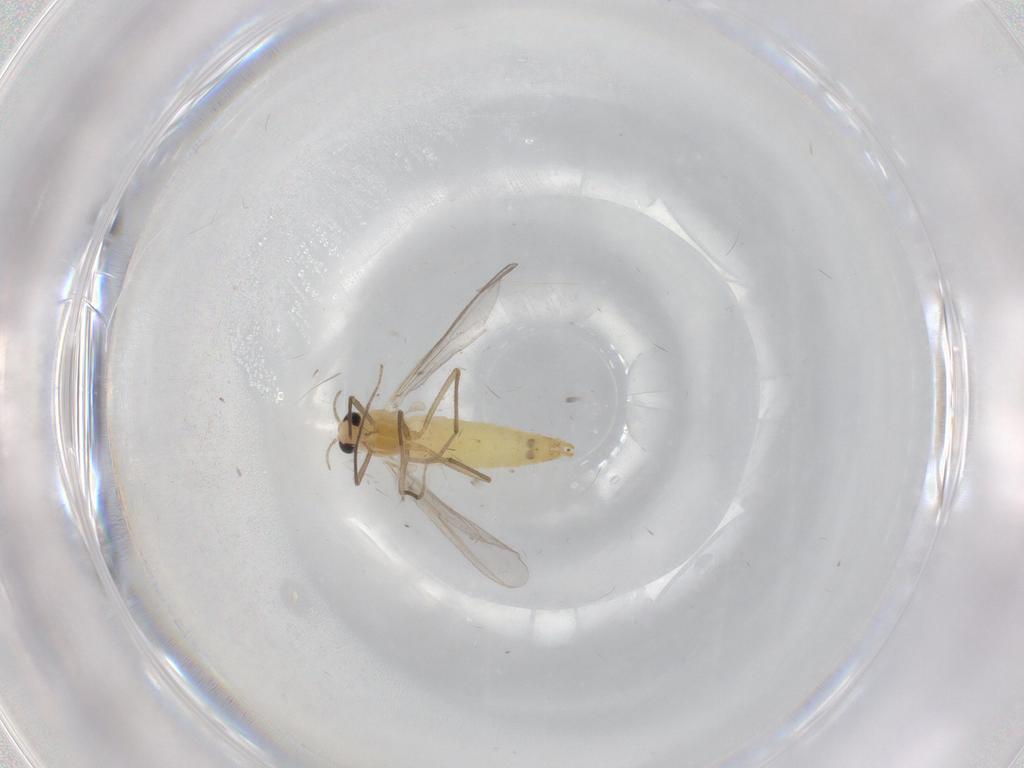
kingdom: Animalia
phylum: Arthropoda
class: Insecta
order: Diptera
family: Chironomidae
